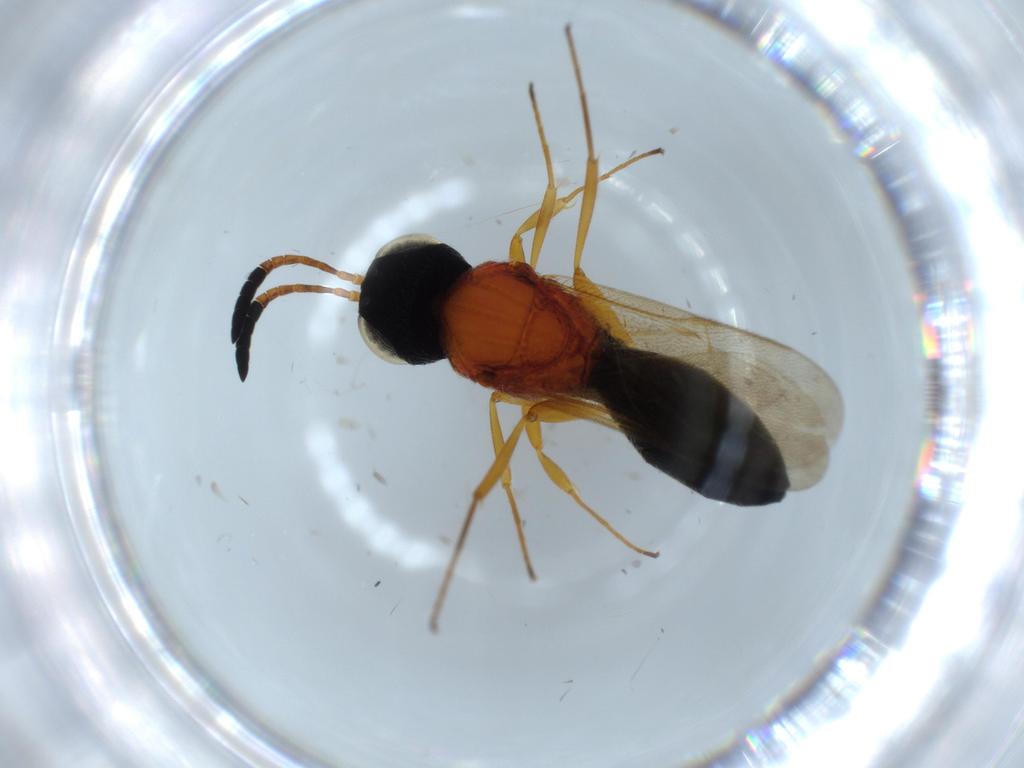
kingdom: Animalia
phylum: Arthropoda
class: Insecta
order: Hymenoptera
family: Scelionidae
